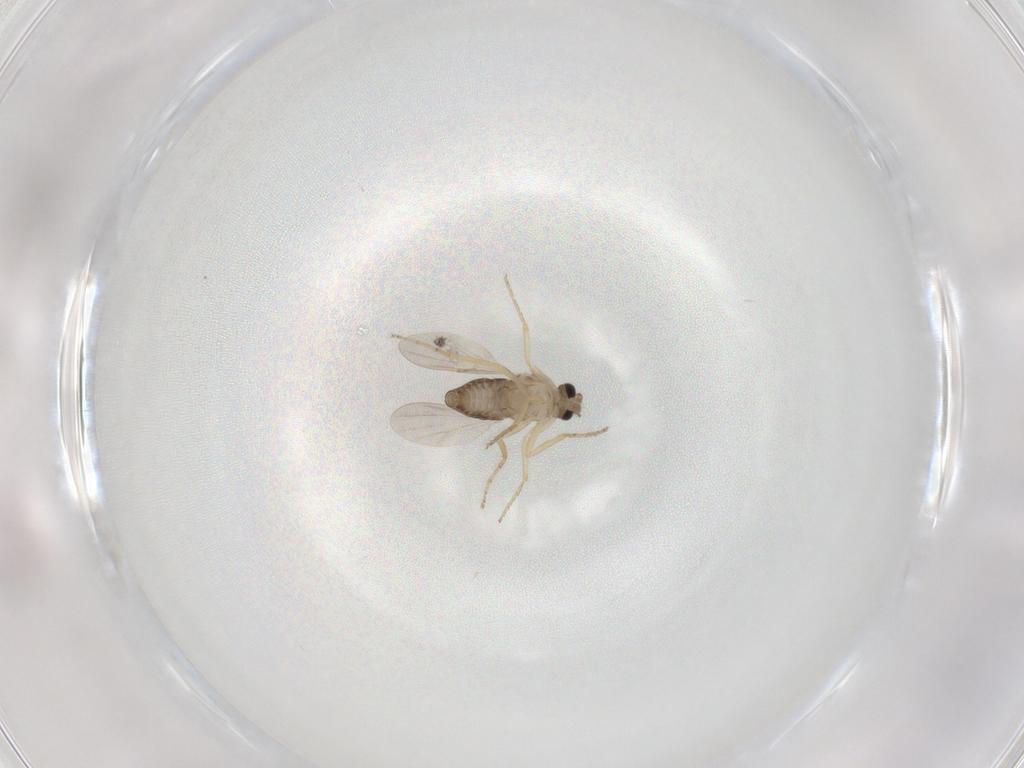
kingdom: Animalia
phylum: Arthropoda
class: Insecta
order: Diptera
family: Ceratopogonidae
